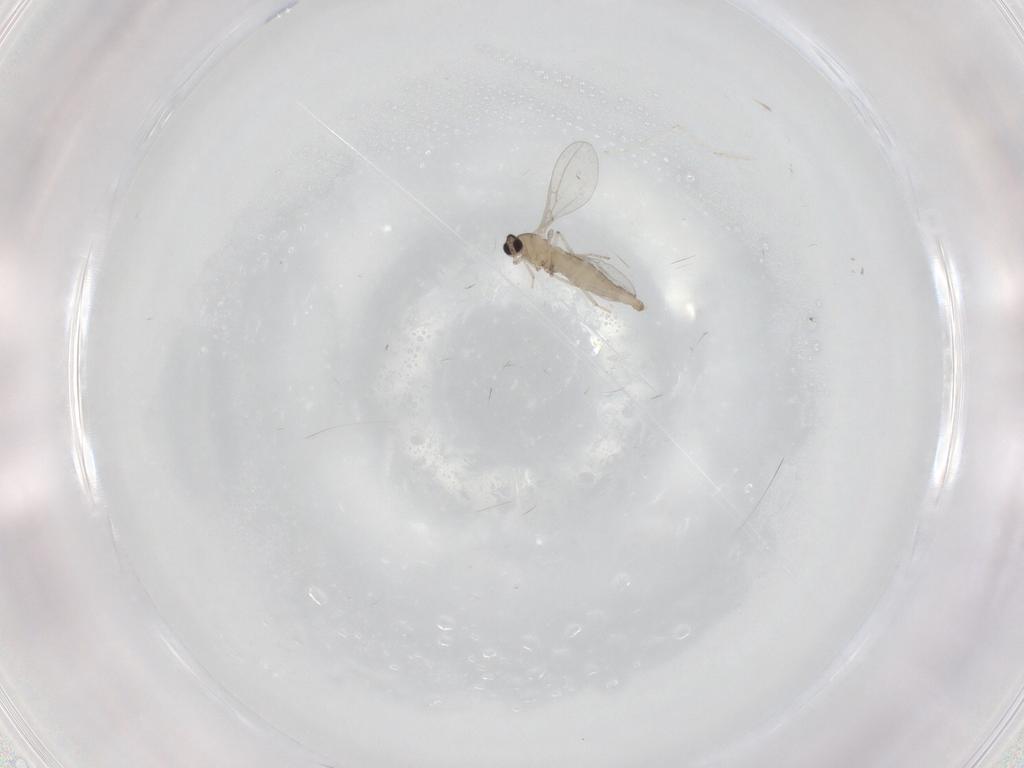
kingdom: Animalia
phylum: Arthropoda
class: Insecta
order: Diptera
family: Cecidomyiidae
